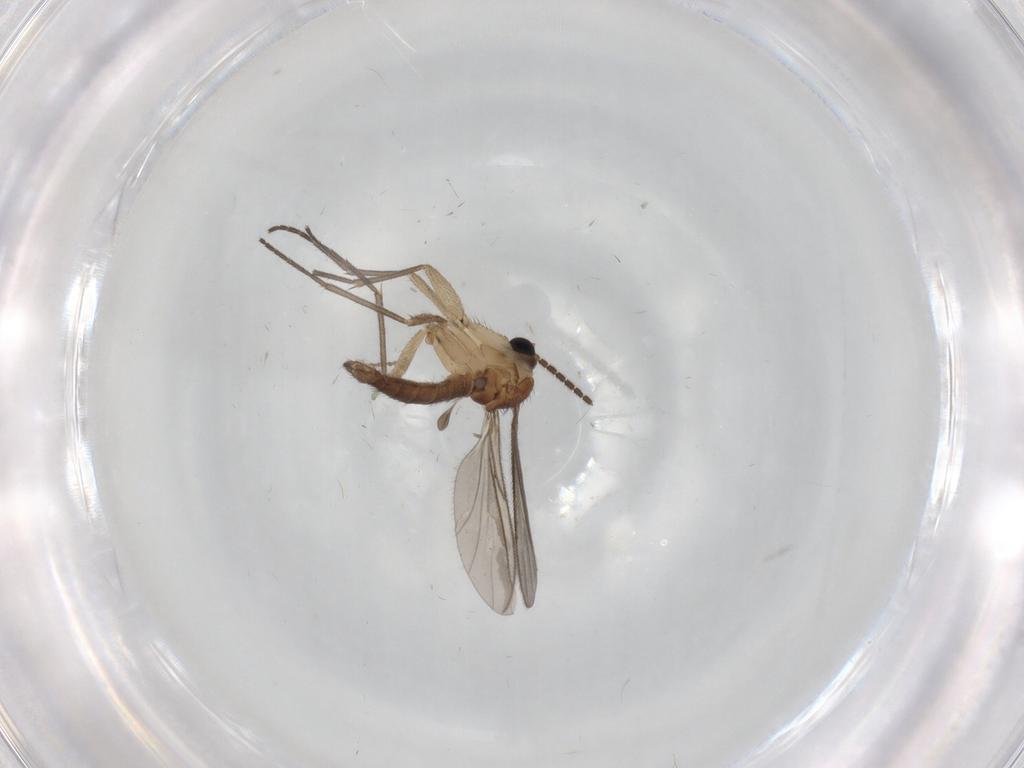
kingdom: Animalia
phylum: Arthropoda
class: Insecta
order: Diptera
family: Sciaridae
